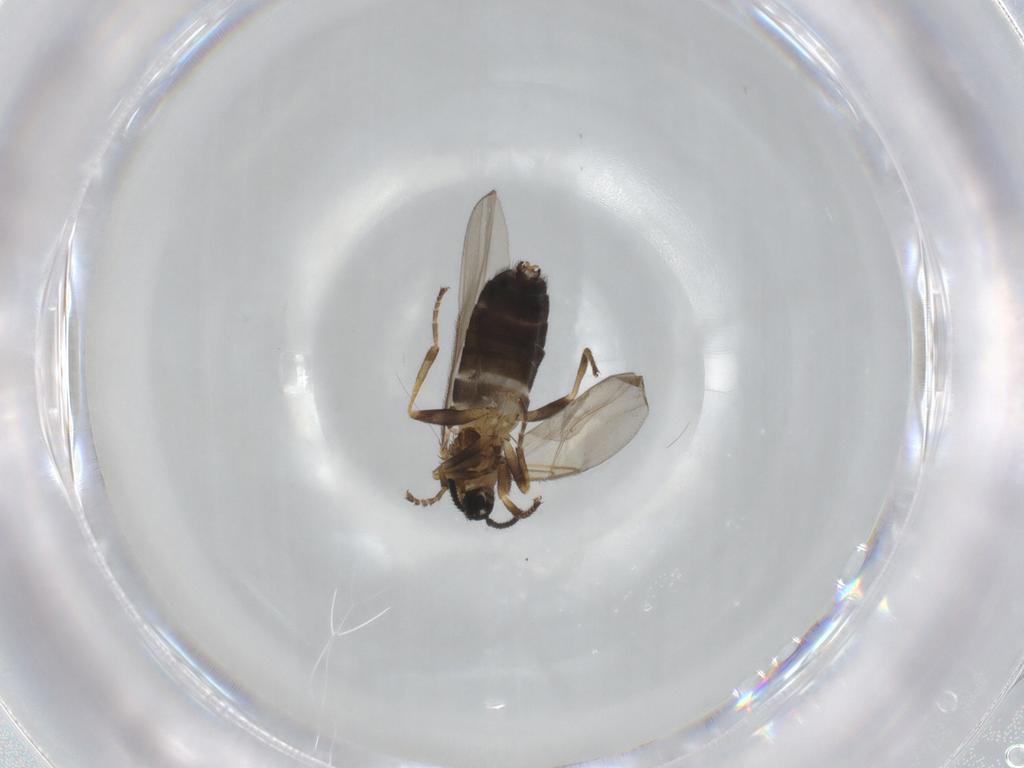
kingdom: Animalia
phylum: Arthropoda
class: Insecta
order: Diptera
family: Scatopsidae
